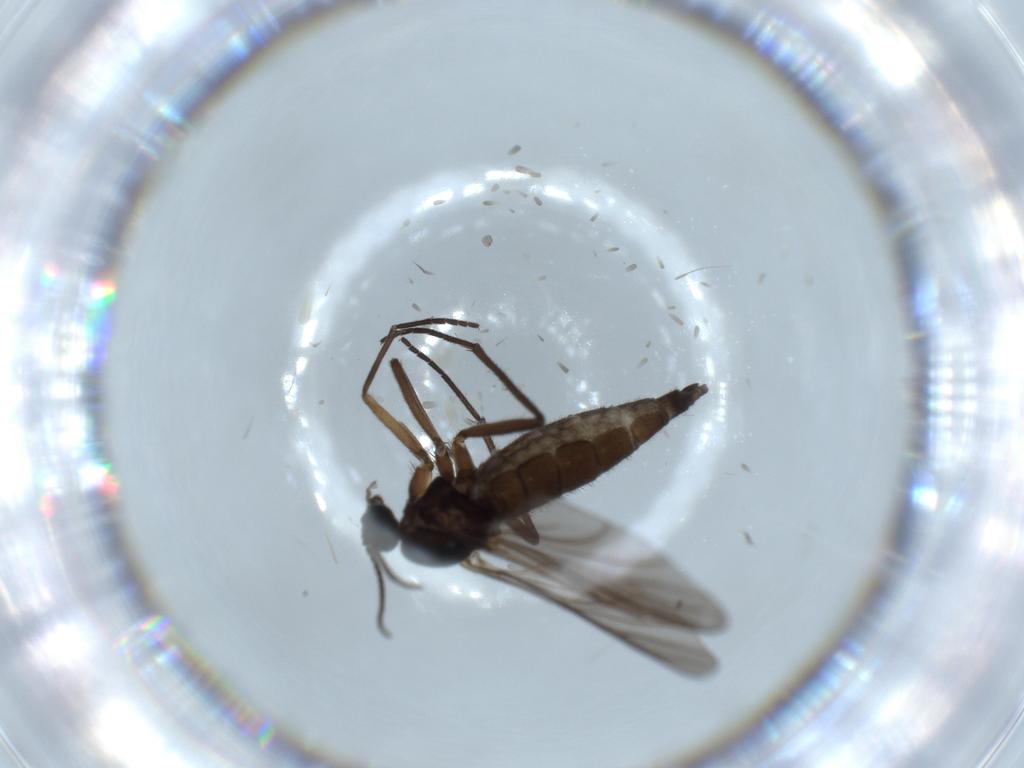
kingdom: Animalia
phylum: Arthropoda
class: Insecta
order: Diptera
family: Sciaridae
